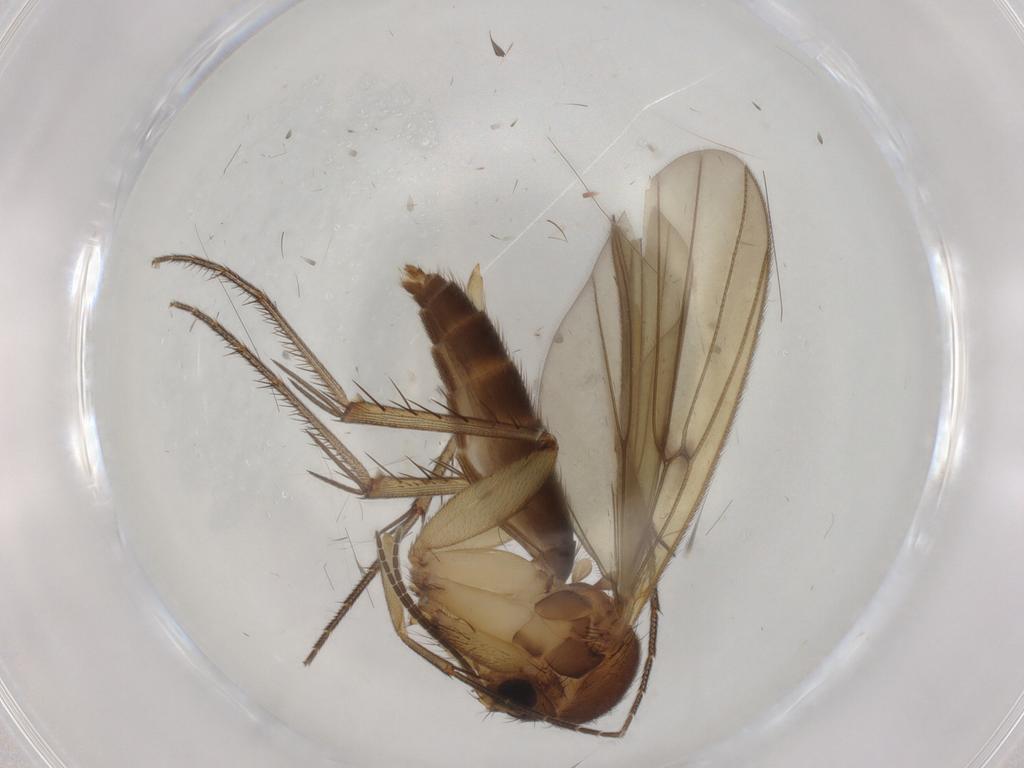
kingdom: Animalia
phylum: Arthropoda
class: Insecta
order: Diptera
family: Mycetophilidae
